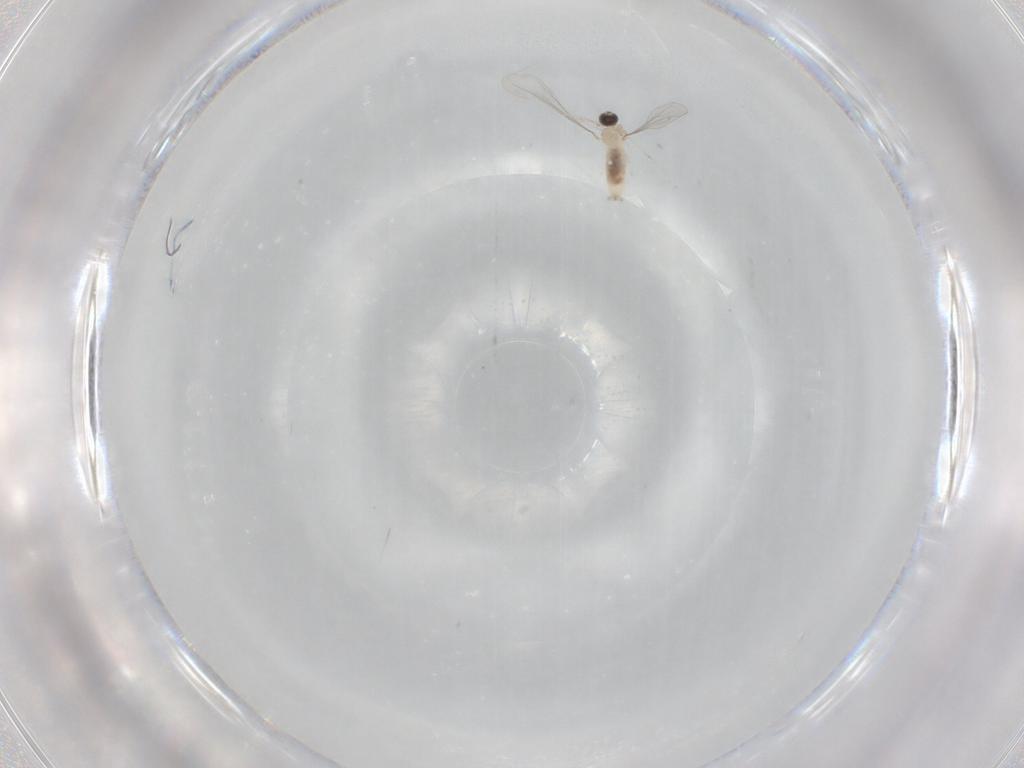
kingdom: Animalia
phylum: Arthropoda
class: Insecta
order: Diptera
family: Cecidomyiidae
